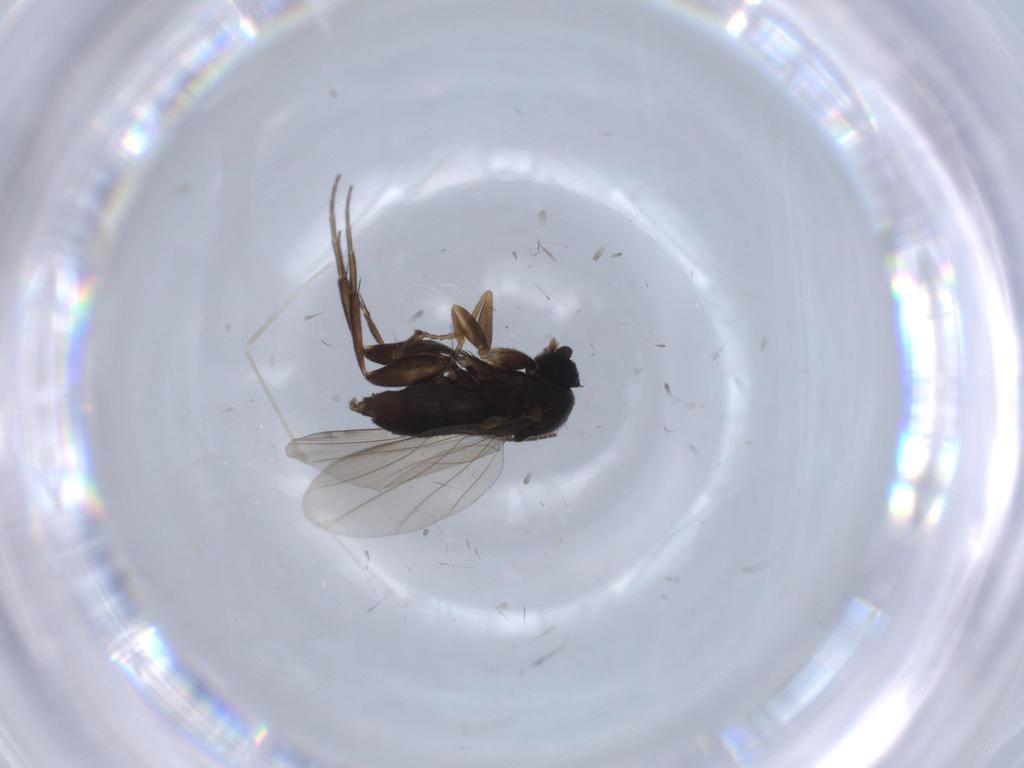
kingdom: Animalia
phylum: Arthropoda
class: Insecta
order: Diptera
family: Phoridae
